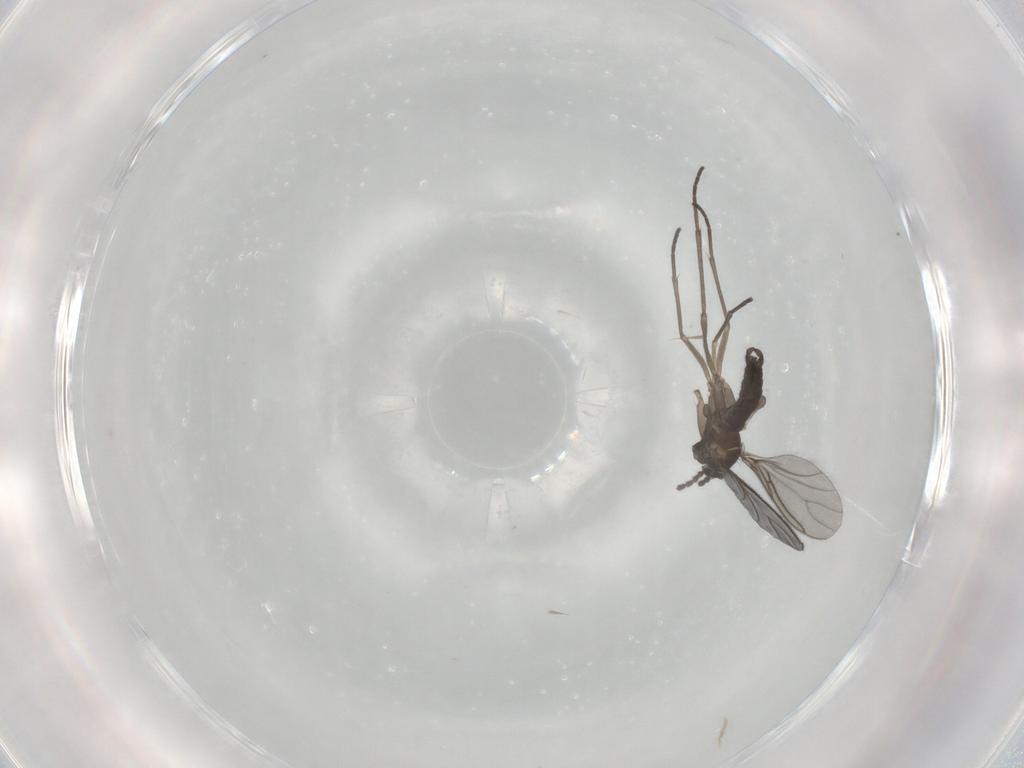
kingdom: Animalia
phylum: Arthropoda
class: Insecta
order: Diptera
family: Sciaridae
